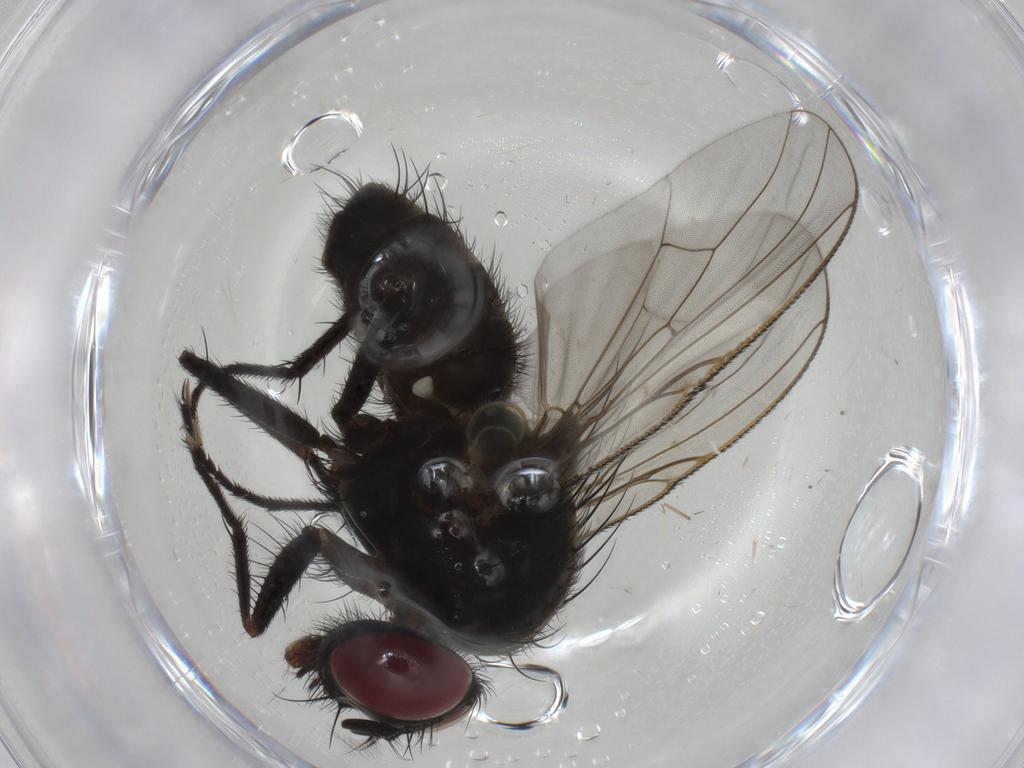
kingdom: Animalia
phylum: Arthropoda
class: Insecta
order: Diptera
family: Muscidae
